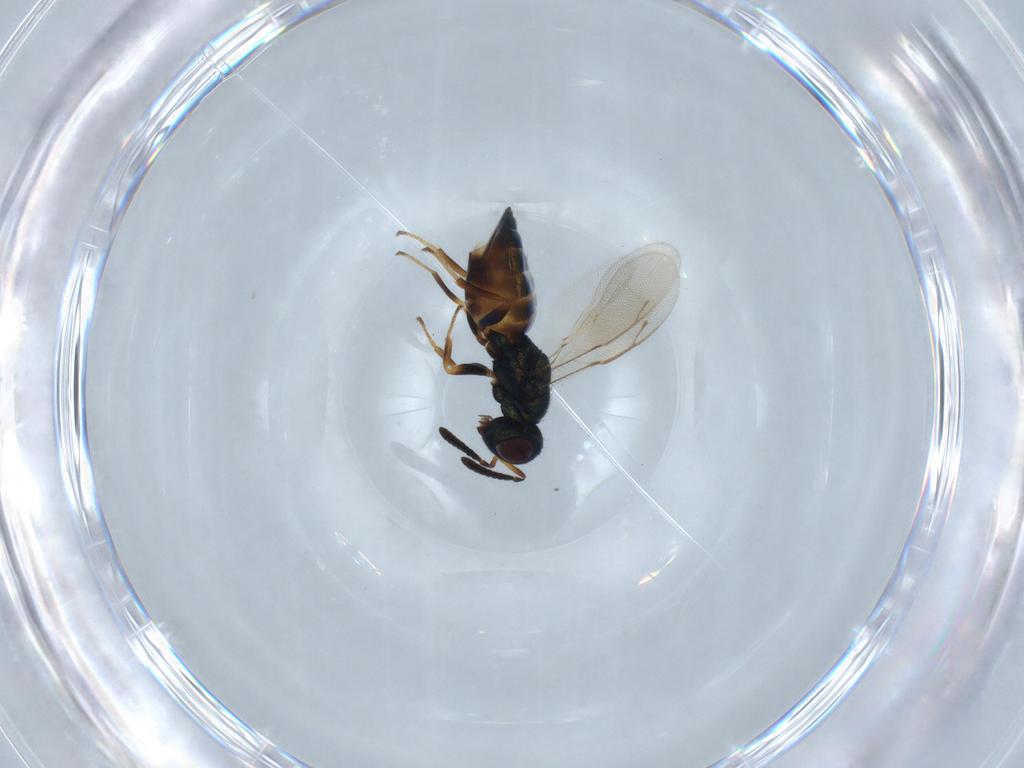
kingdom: Animalia
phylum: Arthropoda
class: Insecta
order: Hymenoptera
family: Pteromalidae
